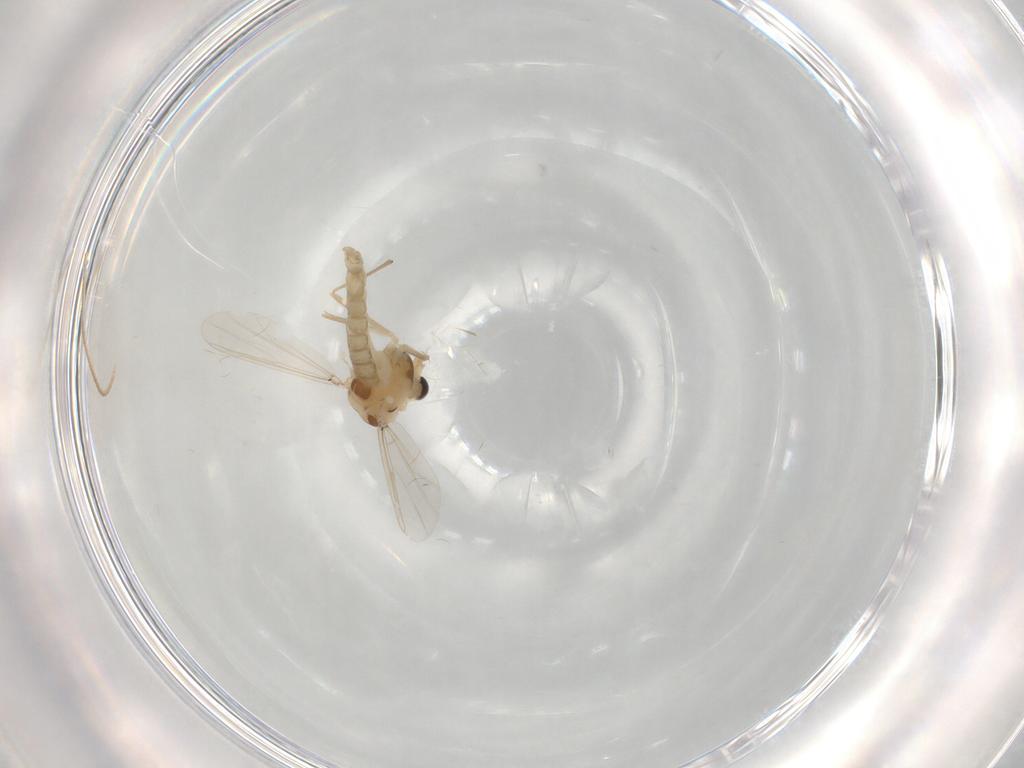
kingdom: Animalia
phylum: Arthropoda
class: Insecta
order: Diptera
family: Chironomidae
